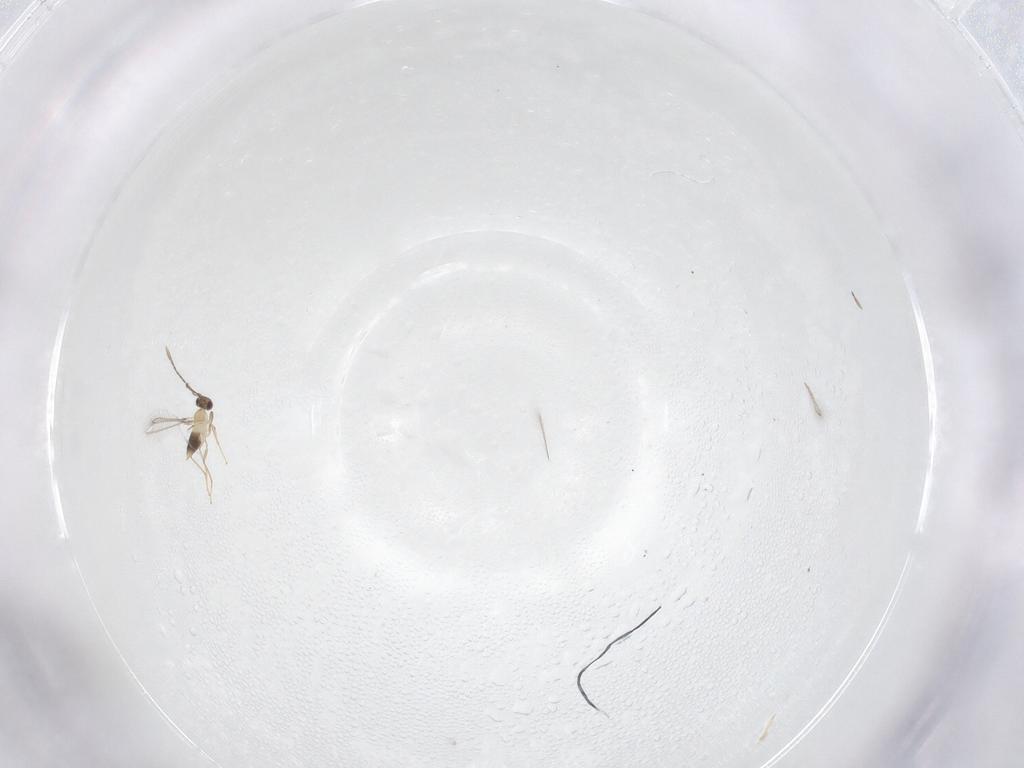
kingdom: Animalia
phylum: Arthropoda
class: Insecta
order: Hymenoptera
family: Mymaridae
